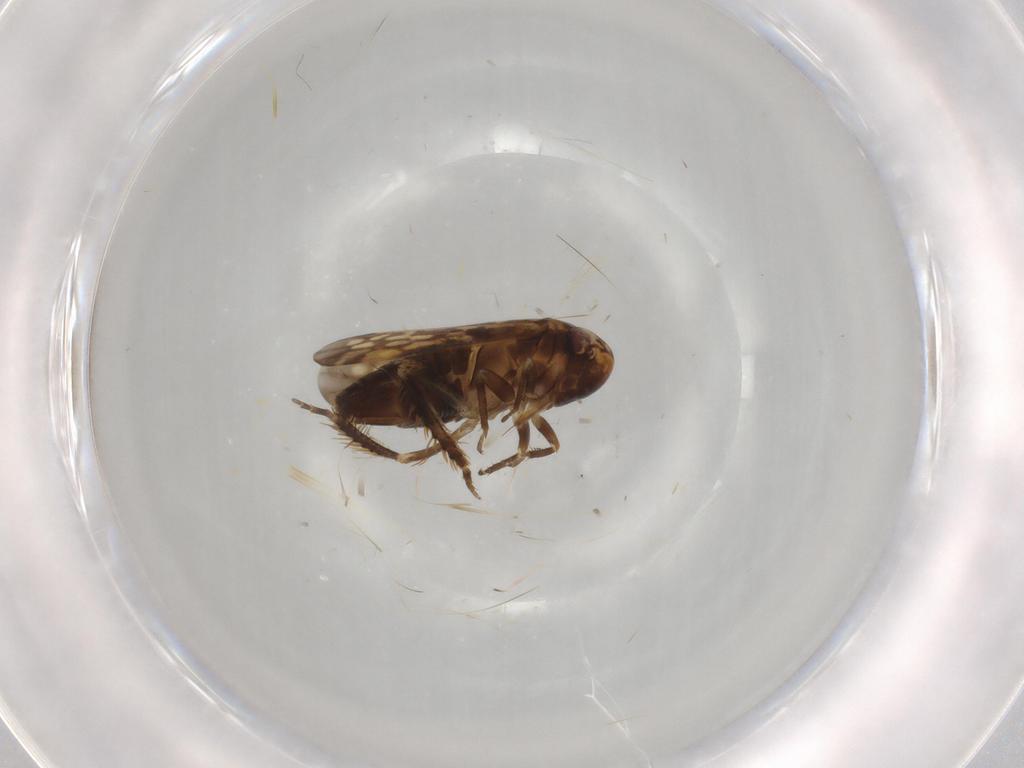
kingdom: Animalia
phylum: Arthropoda
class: Insecta
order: Hemiptera
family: Cicadellidae
